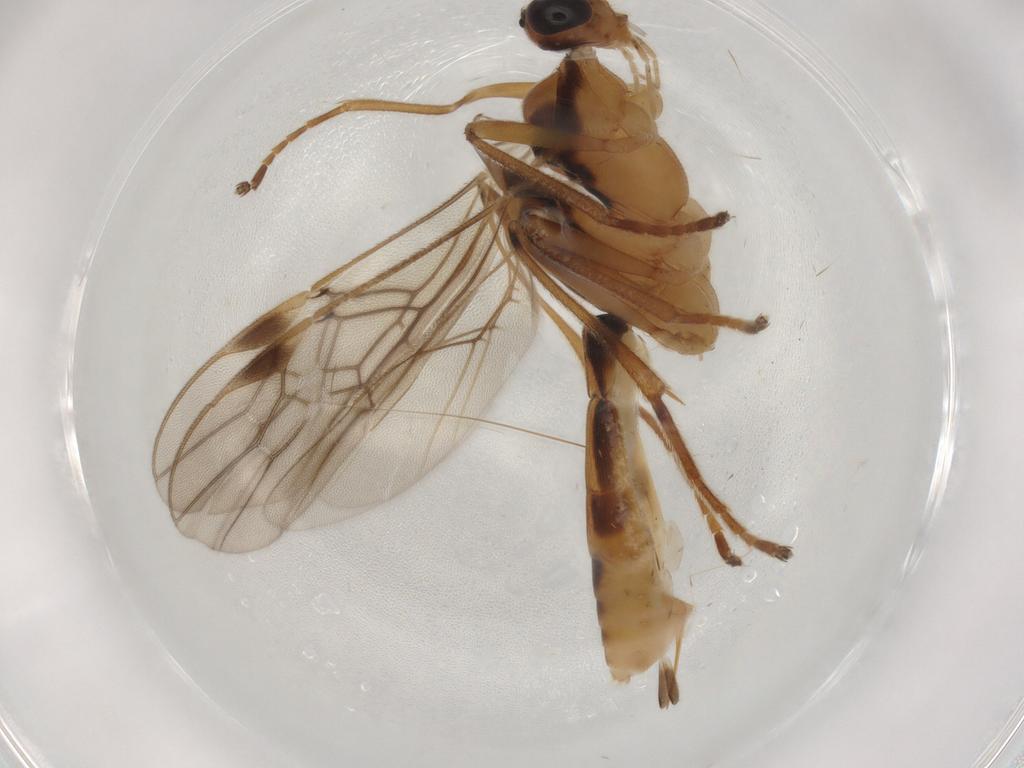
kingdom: Animalia
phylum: Arthropoda
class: Insecta
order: Hymenoptera
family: Braconidae
